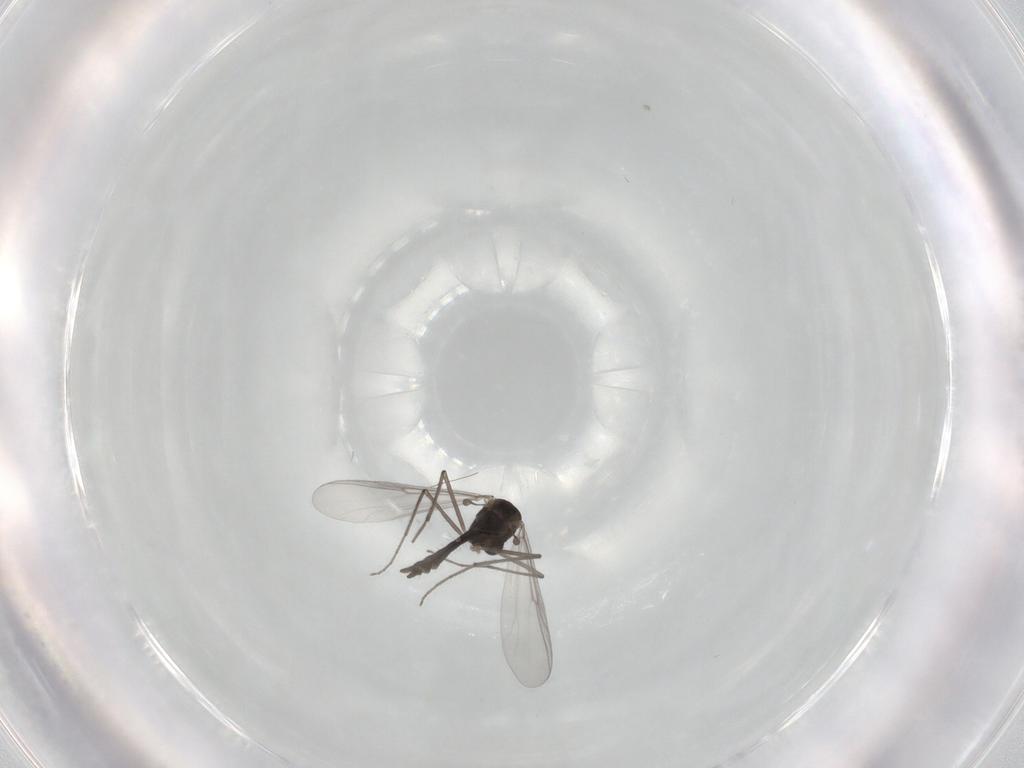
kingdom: Animalia
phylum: Arthropoda
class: Insecta
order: Diptera
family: Chironomidae
